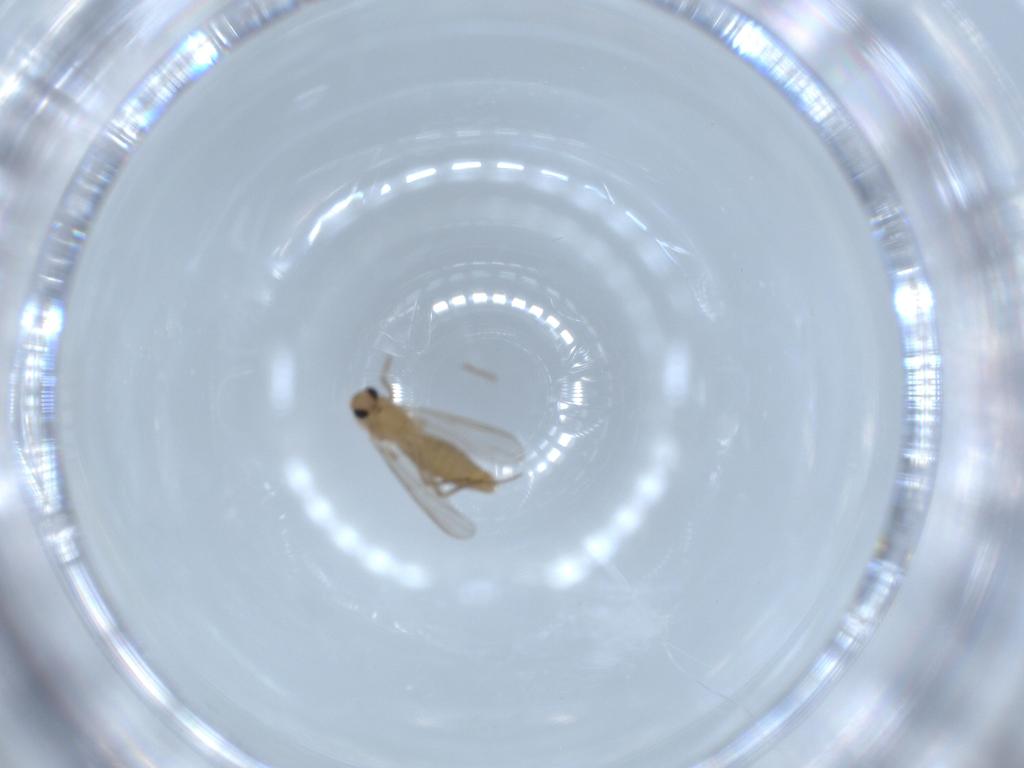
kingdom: Animalia
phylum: Arthropoda
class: Insecta
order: Diptera
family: Chironomidae
